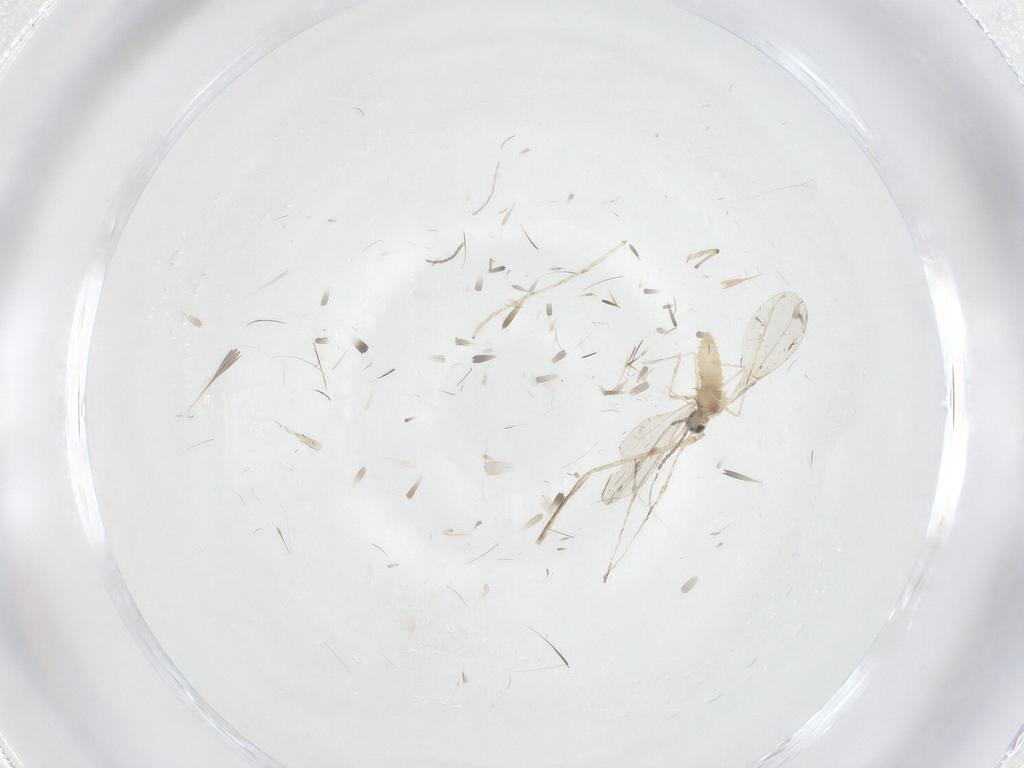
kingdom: Animalia
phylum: Arthropoda
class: Insecta
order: Diptera
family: Cecidomyiidae
